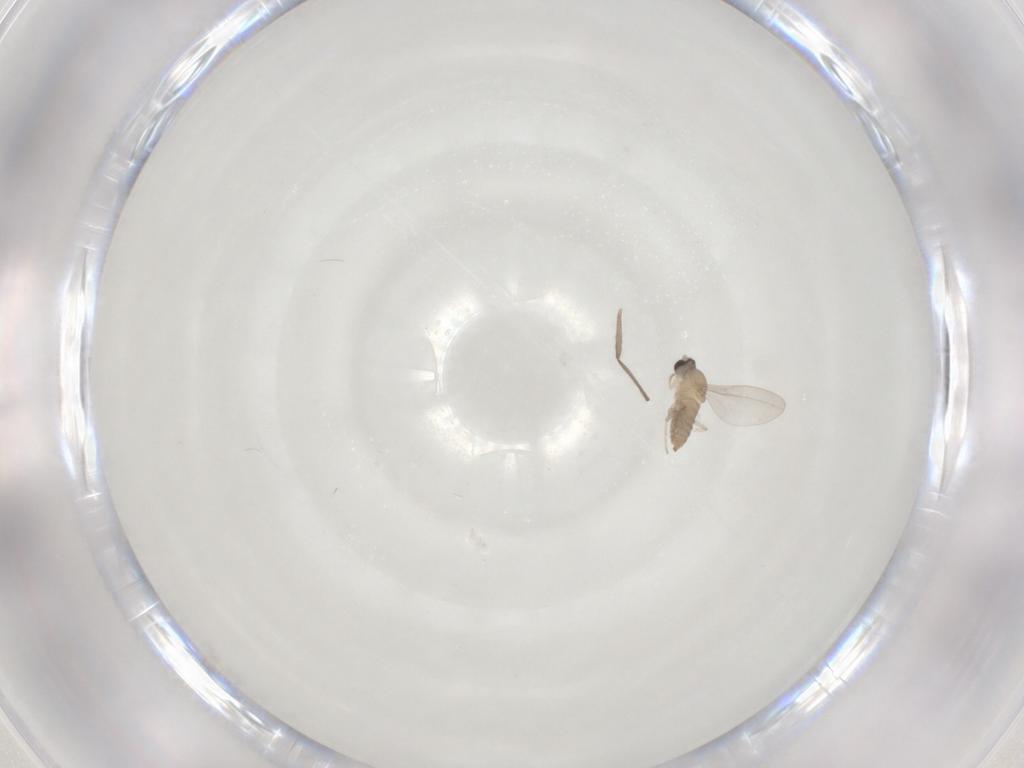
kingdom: Animalia
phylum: Arthropoda
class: Insecta
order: Diptera
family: Cecidomyiidae
